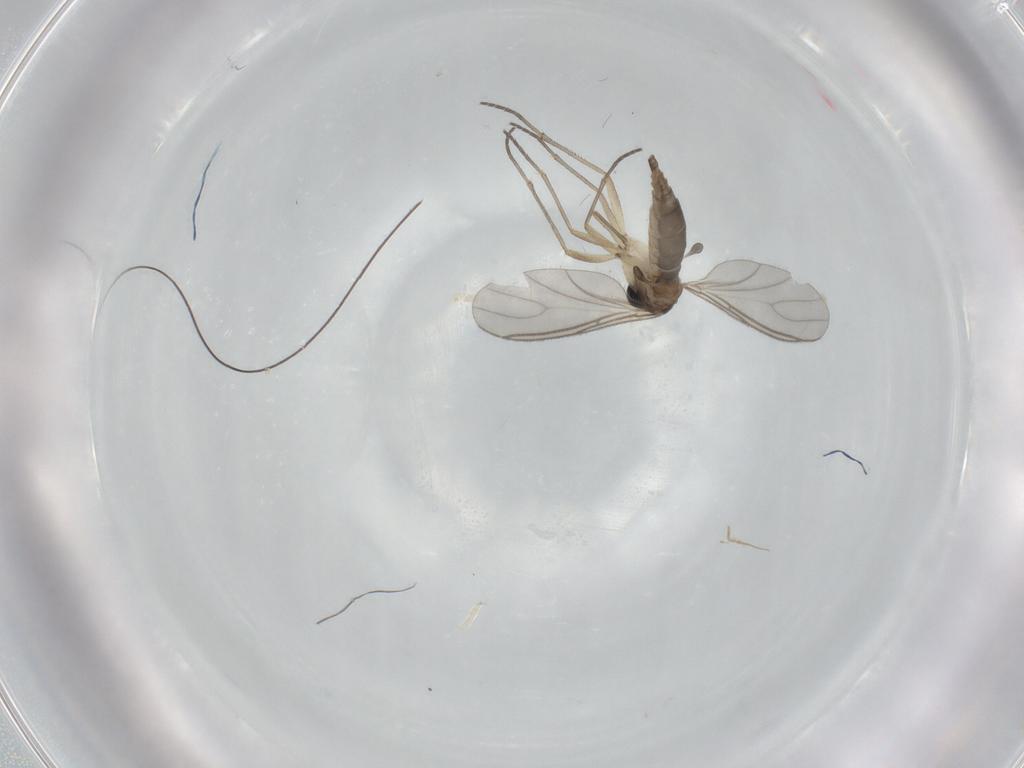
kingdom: Animalia
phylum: Arthropoda
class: Insecta
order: Diptera
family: Sciaridae
